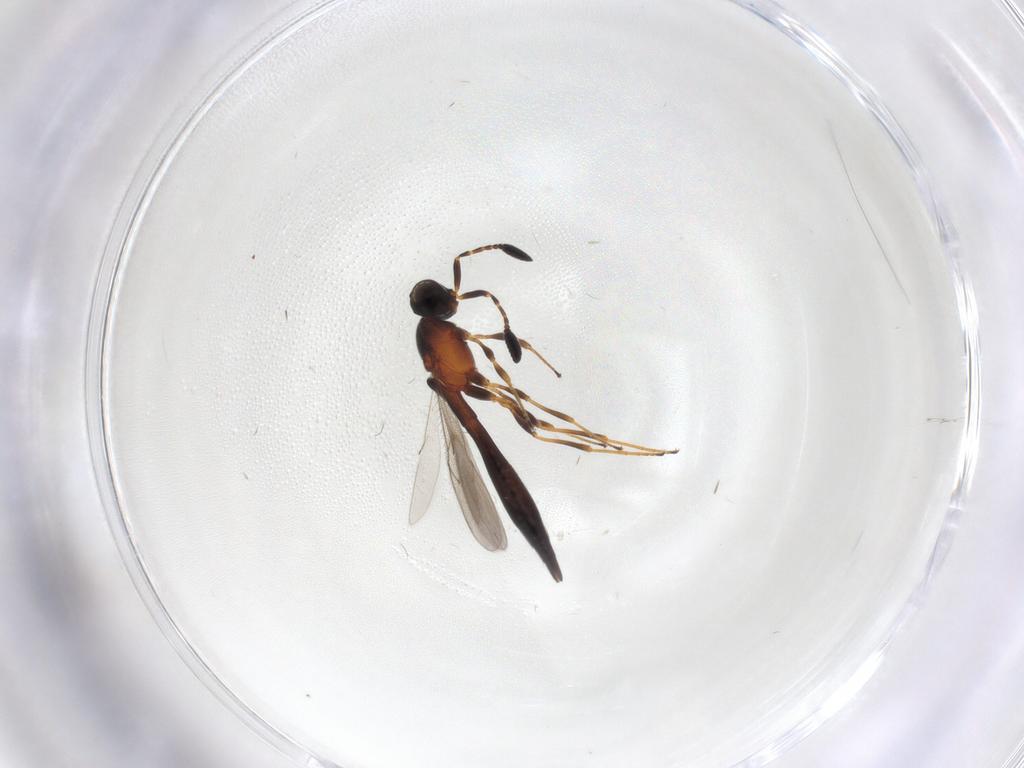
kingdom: Animalia
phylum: Arthropoda
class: Insecta
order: Hymenoptera
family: Scelionidae
